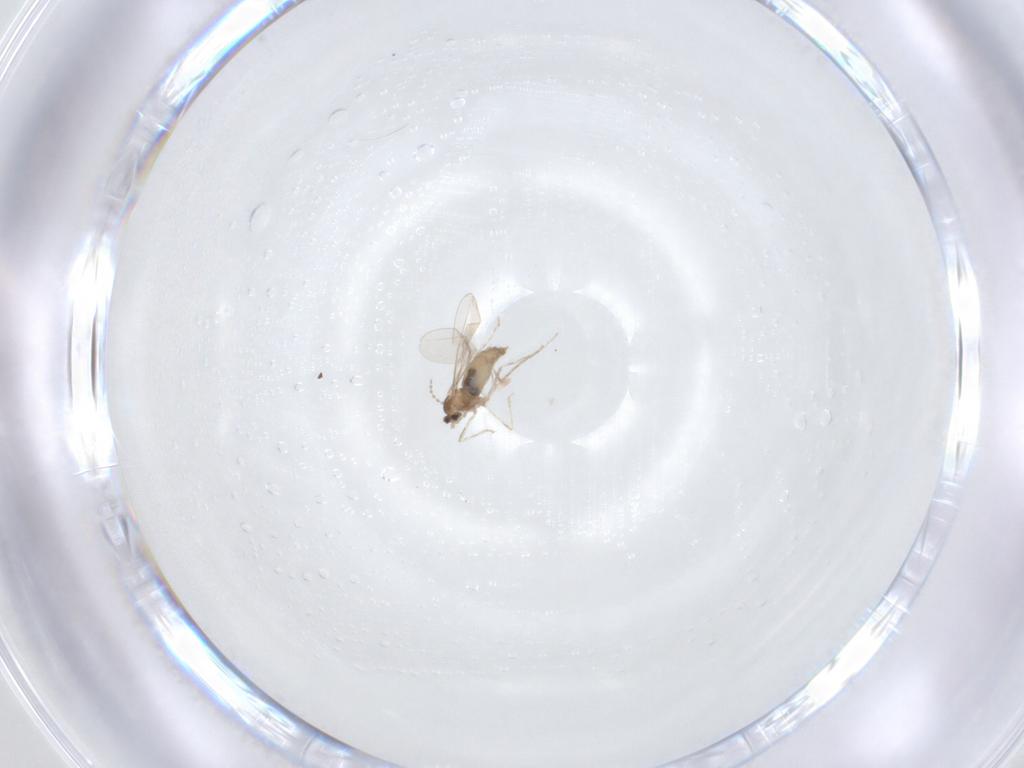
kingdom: Animalia
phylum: Arthropoda
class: Insecta
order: Diptera
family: Cecidomyiidae
